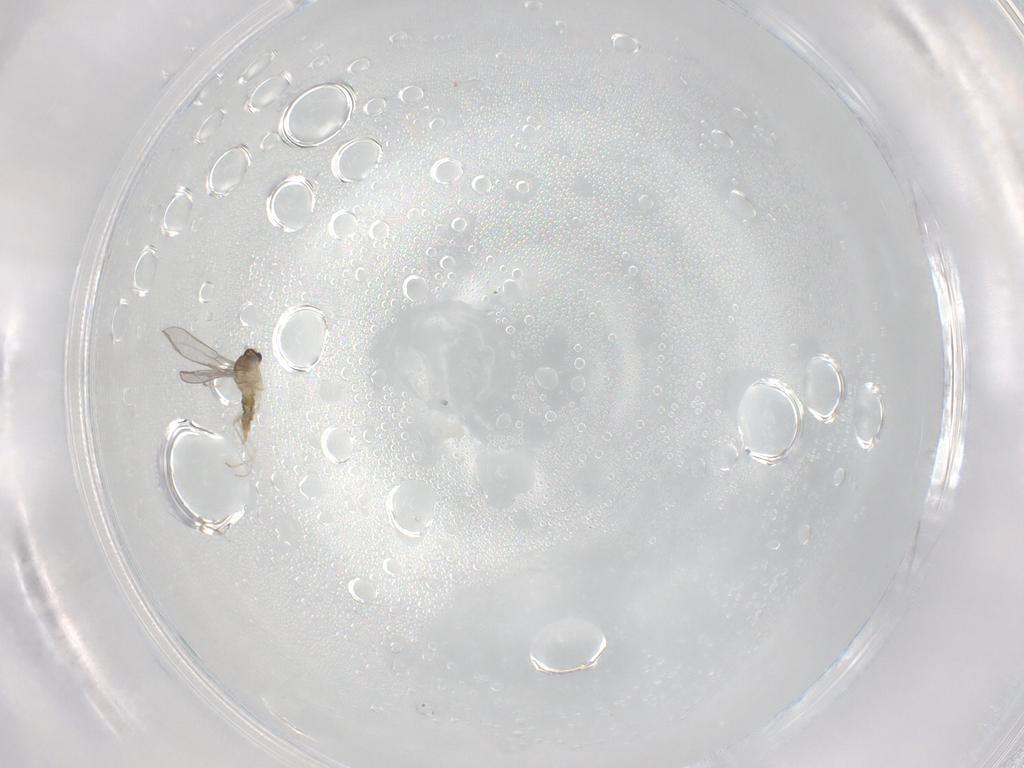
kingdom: Animalia
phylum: Arthropoda
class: Insecta
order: Diptera
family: Cecidomyiidae
